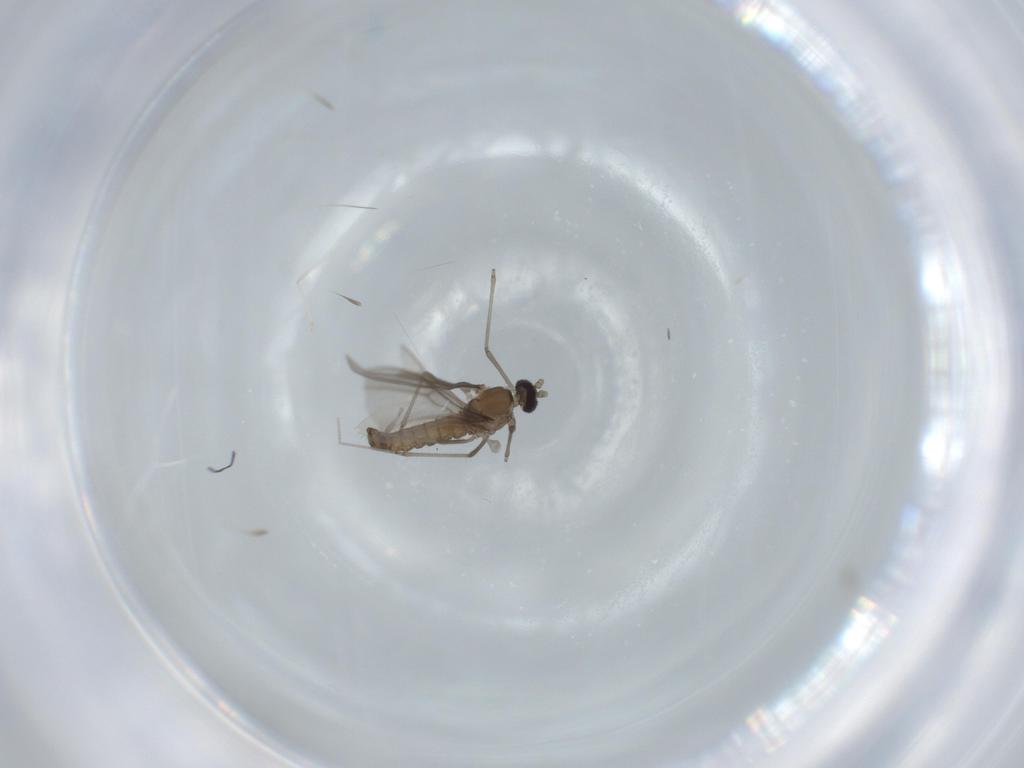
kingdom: Animalia
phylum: Arthropoda
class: Insecta
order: Diptera
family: Cecidomyiidae
